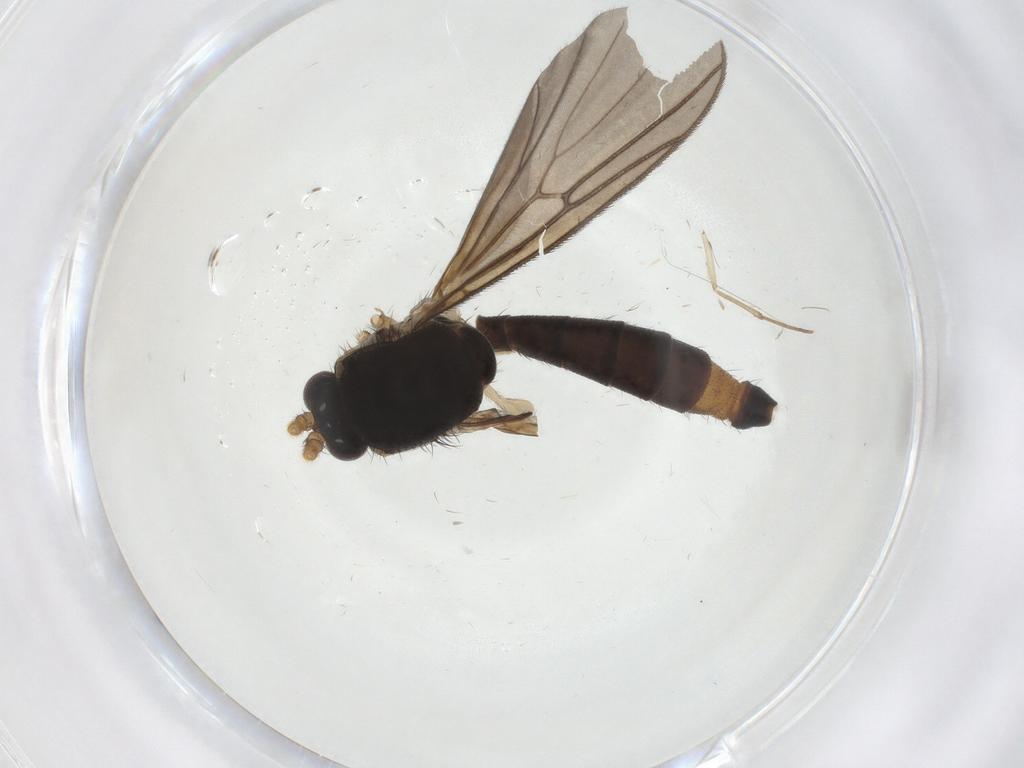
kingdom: Animalia
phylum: Arthropoda
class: Insecta
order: Diptera
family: Mycetophilidae
